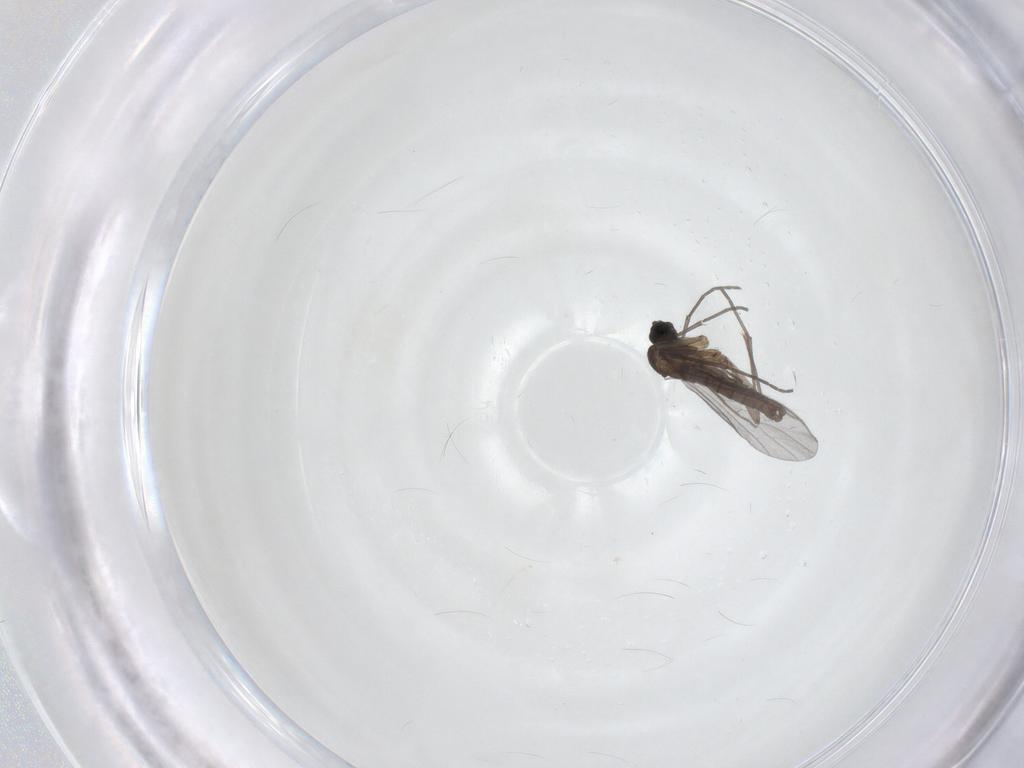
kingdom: Animalia
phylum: Arthropoda
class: Insecta
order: Diptera
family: Sciaridae
